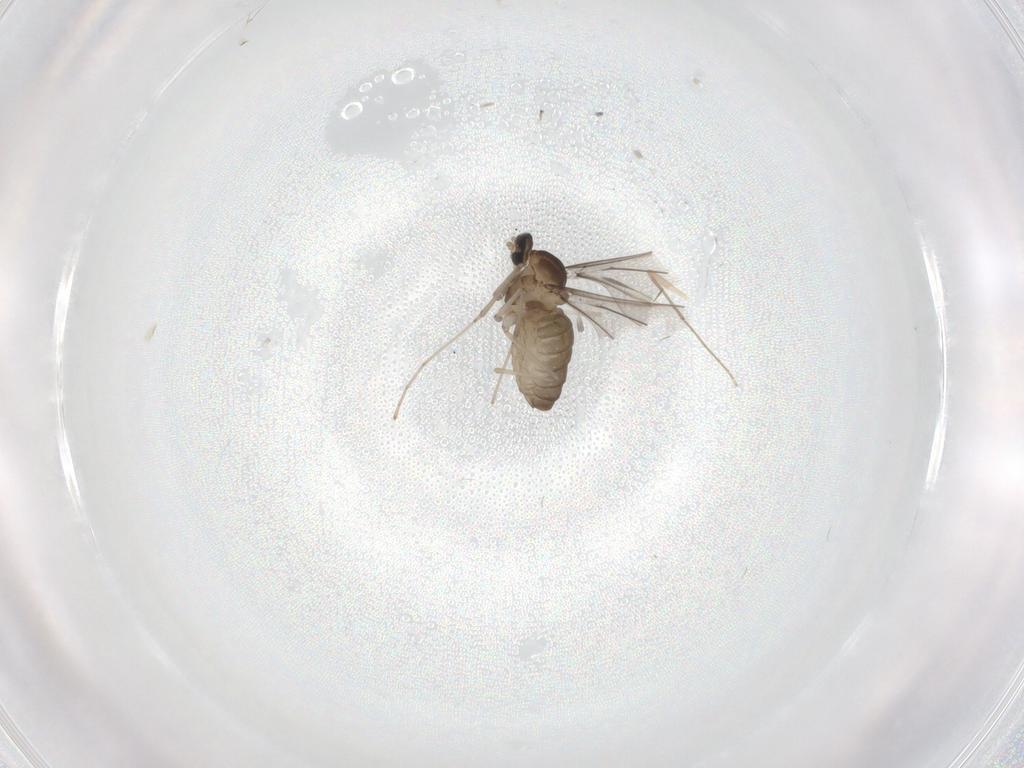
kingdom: Animalia
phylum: Arthropoda
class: Insecta
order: Diptera
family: Cecidomyiidae
